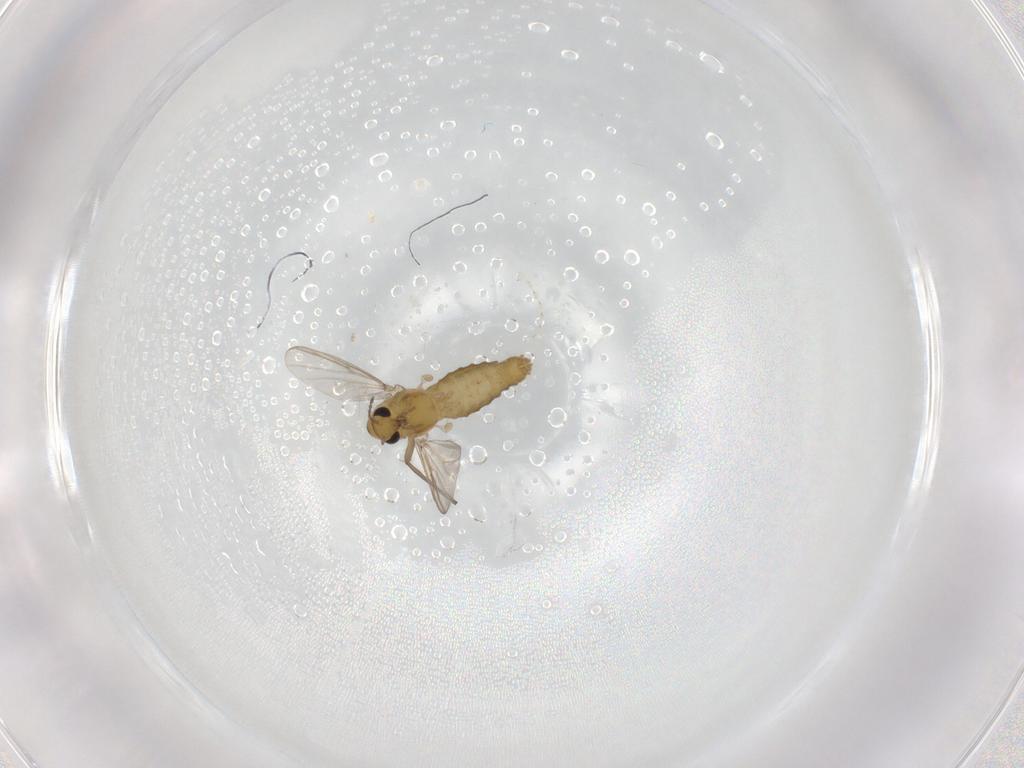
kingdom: Animalia
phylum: Arthropoda
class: Insecta
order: Diptera
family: Chironomidae
